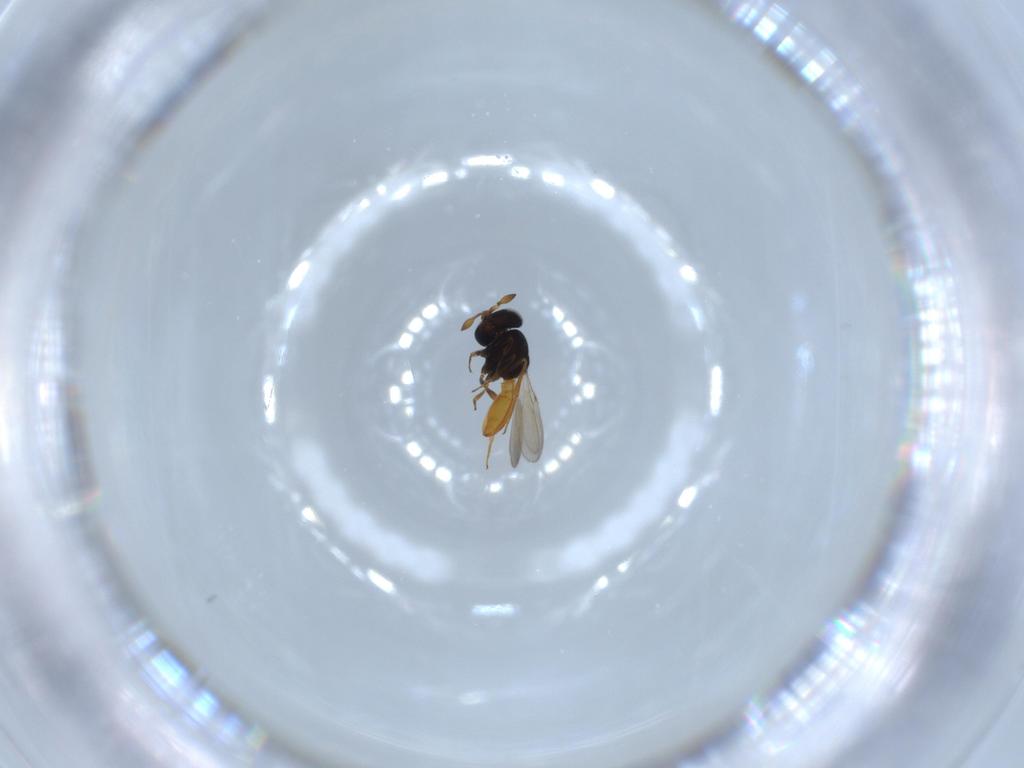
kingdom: Animalia
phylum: Arthropoda
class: Insecta
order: Hymenoptera
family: Scelionidae
